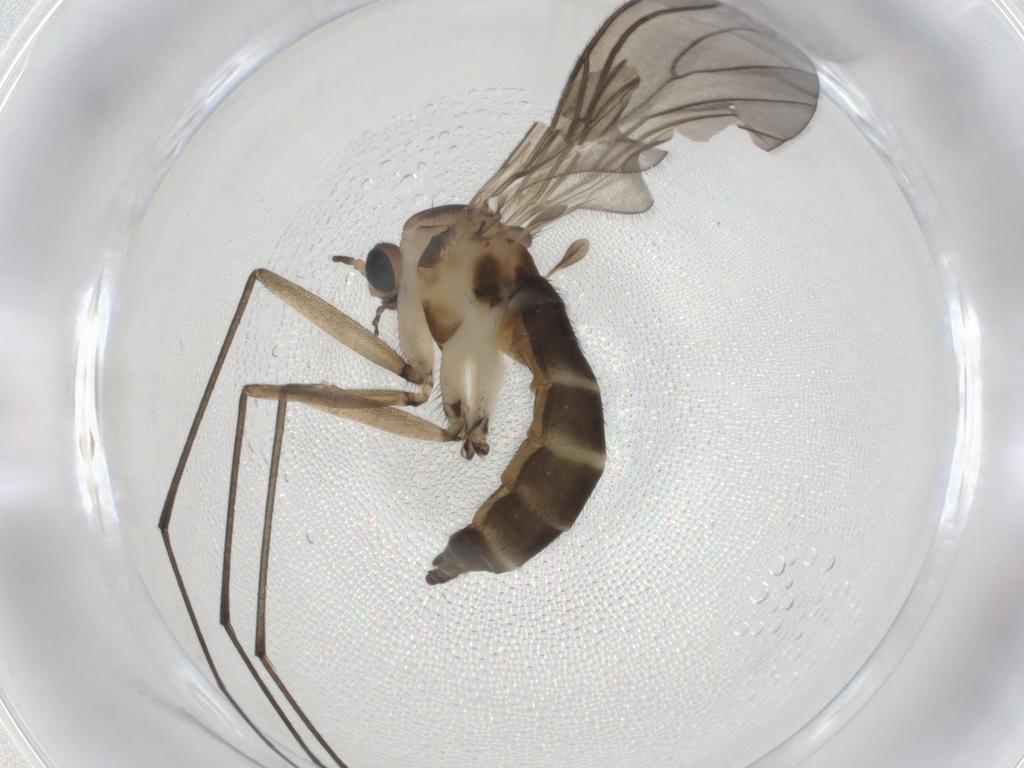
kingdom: Animalia
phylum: Arthropoda
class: Insecta
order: Diptera
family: Sciaridae
